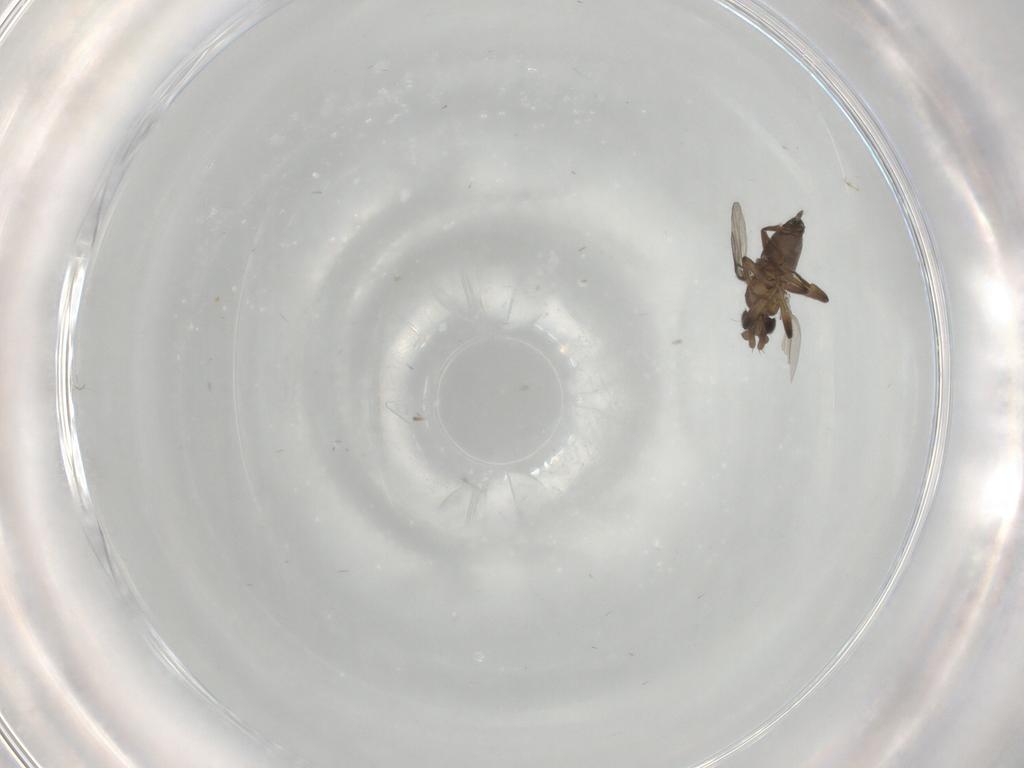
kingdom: Animalia
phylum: Arthropoda
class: Insecta
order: Diptera
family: Phoridae
